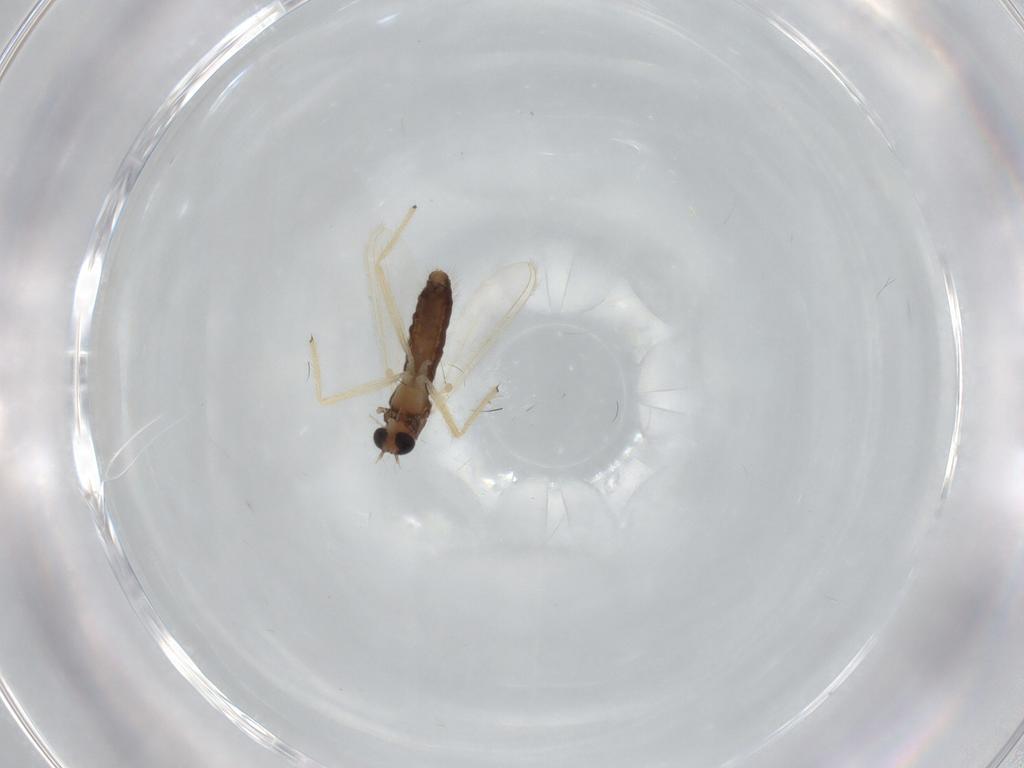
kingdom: Animalia
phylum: Arthropoda
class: Insecta
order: Diptera
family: Chironomidae
